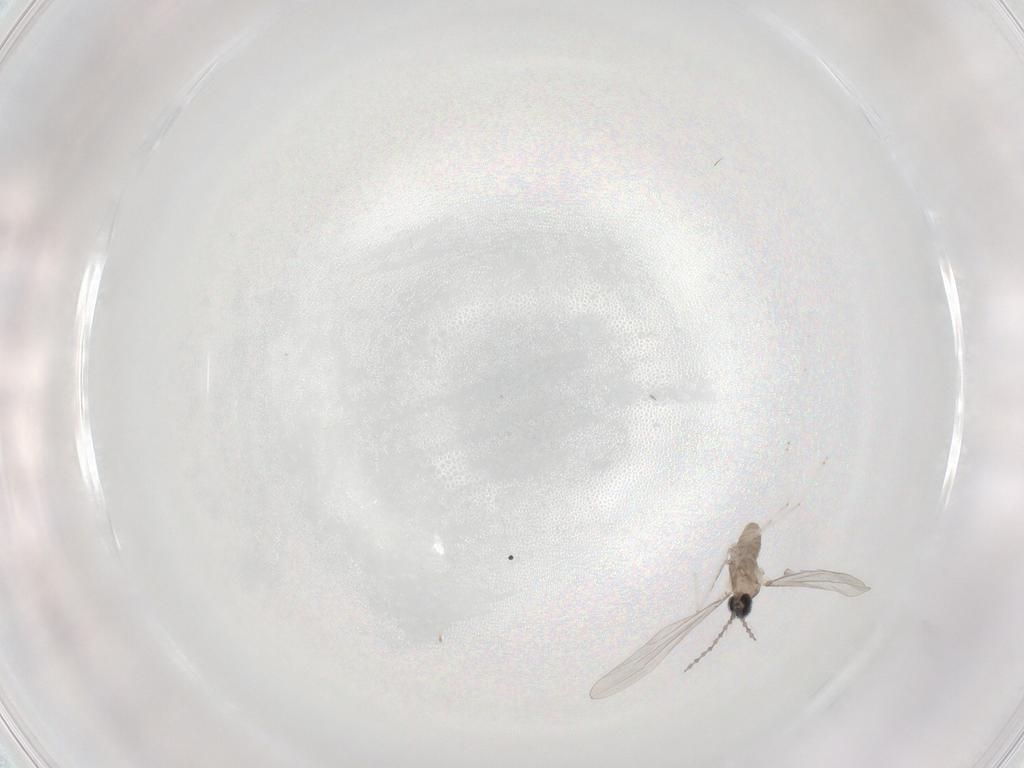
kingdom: Animalia
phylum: Arthropoda
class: Insecta
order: Diptera
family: Cecidomyiidae
